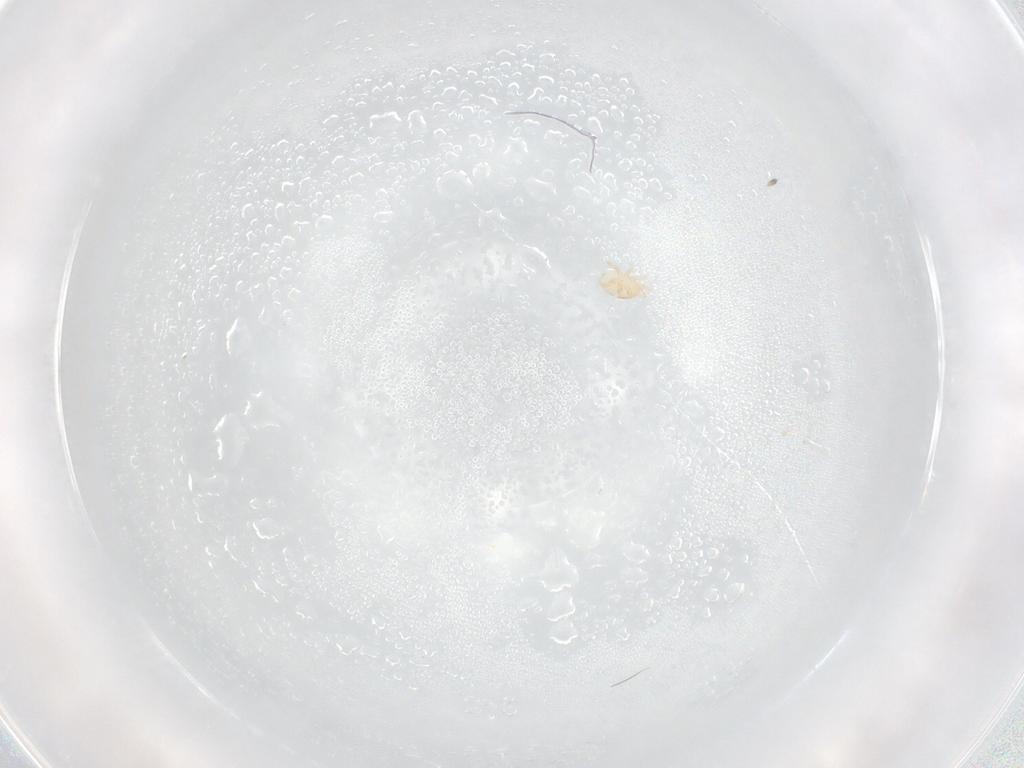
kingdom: Animalia
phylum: Arthropoda
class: Arachnida
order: Mesostigmata
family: Halolaelapidae
